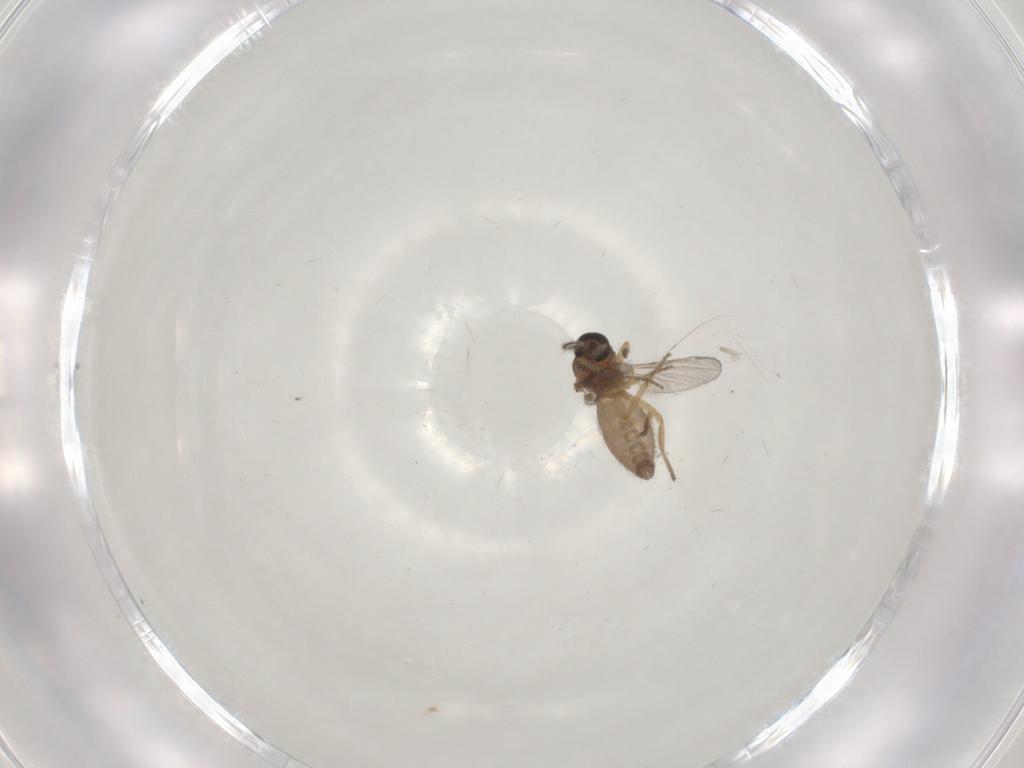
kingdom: Animalia
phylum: Arthropoda
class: Insecta
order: Diptera
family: Ceratopogonidae
